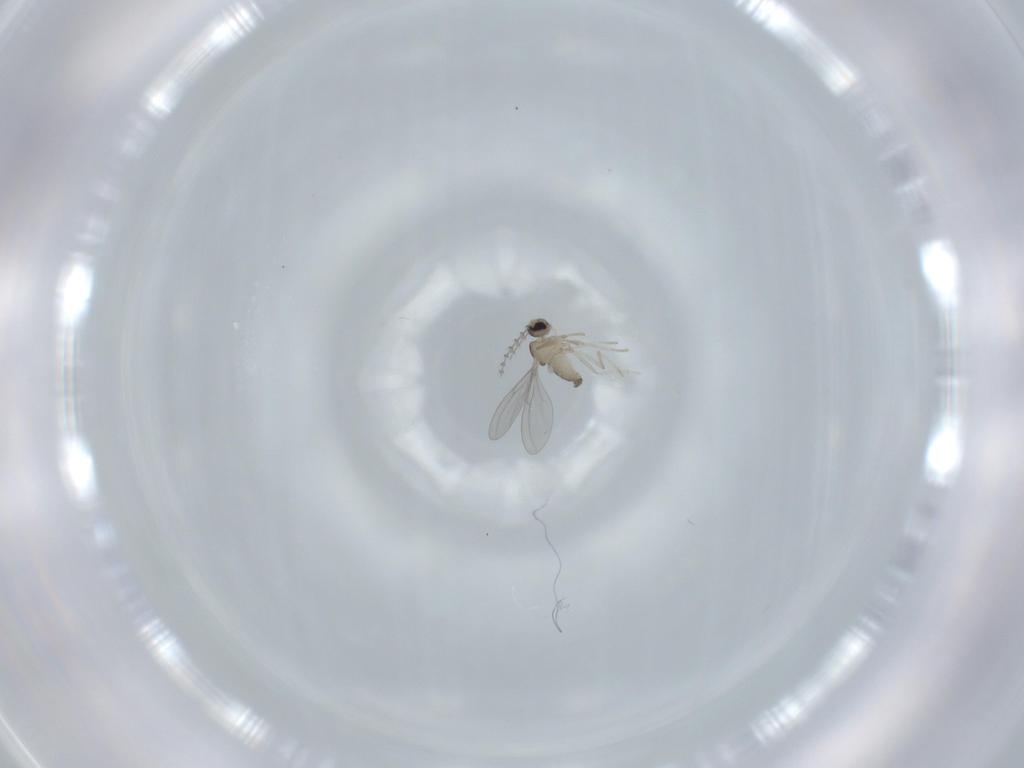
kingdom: Animalia
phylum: Arthropoda
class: Insecta
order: Diptera
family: Cecidomyiidae
